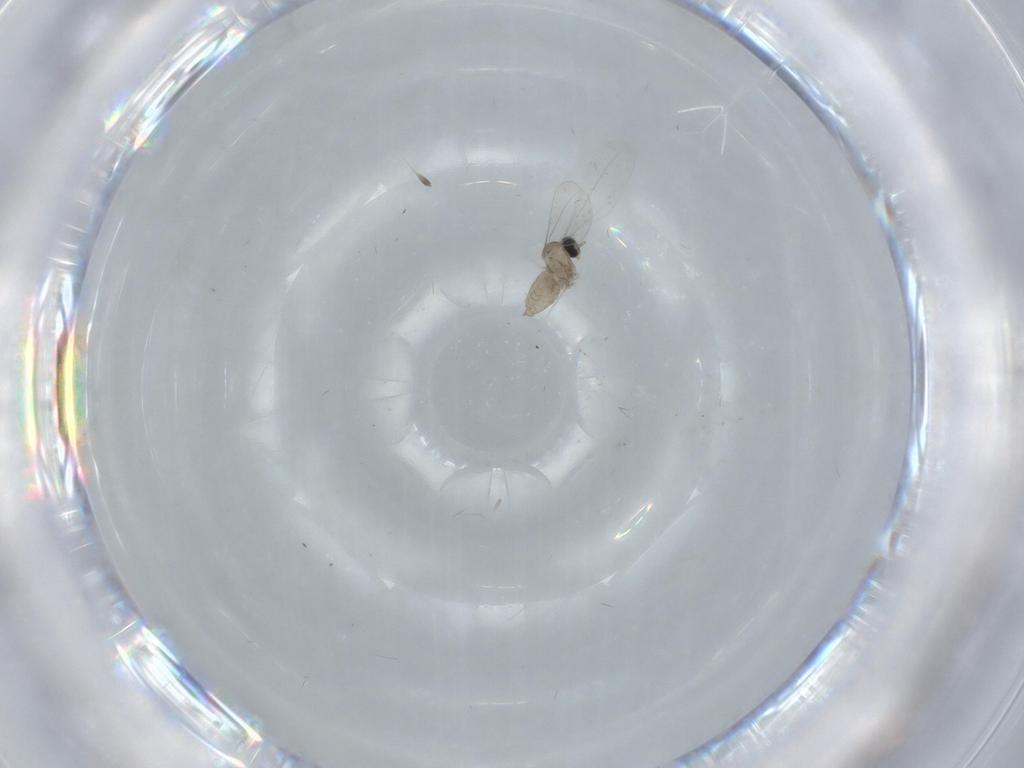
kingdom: Animalia
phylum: Arthropoda
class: Insecta
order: Diptera
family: Cecidomyiidae
